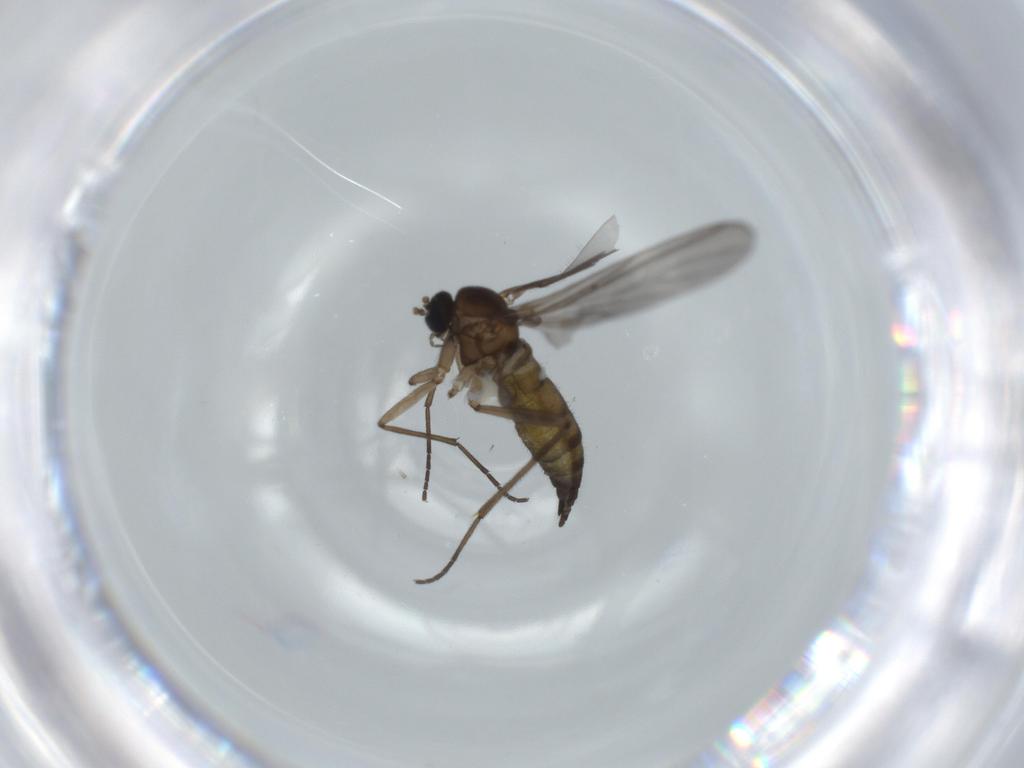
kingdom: Animalia
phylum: Arthropoda
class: Insecta
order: Diptera
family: Sciaridae
